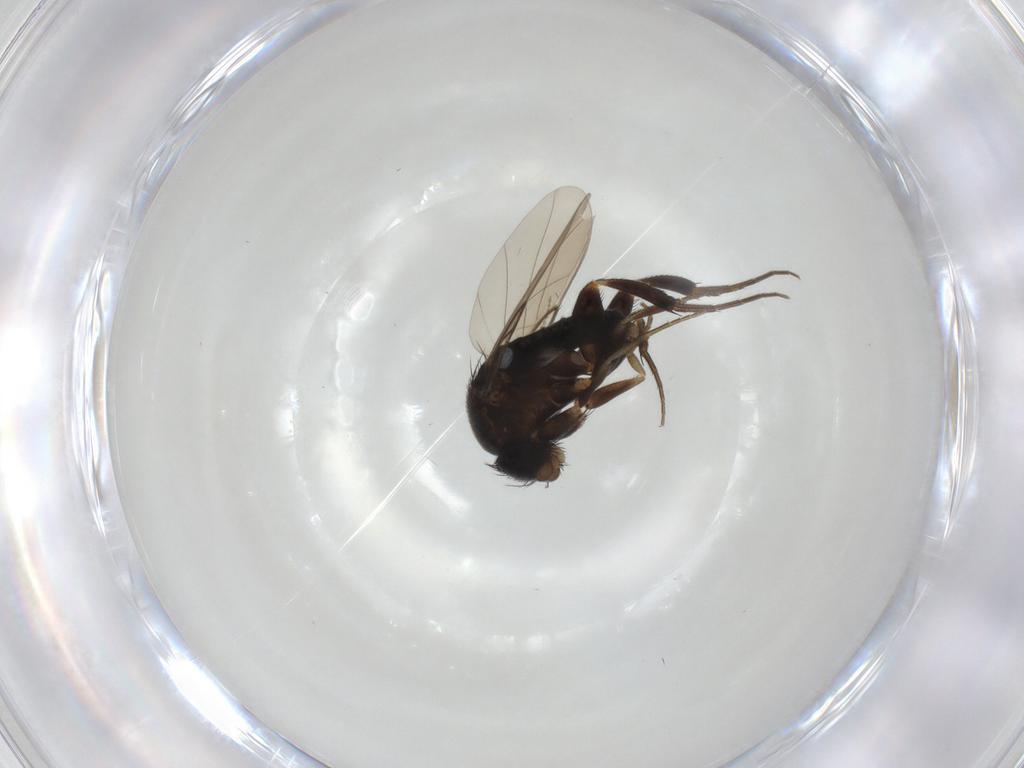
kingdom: Animalia
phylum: Arthropoda
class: Insecta
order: Diptera
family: Phoridae
